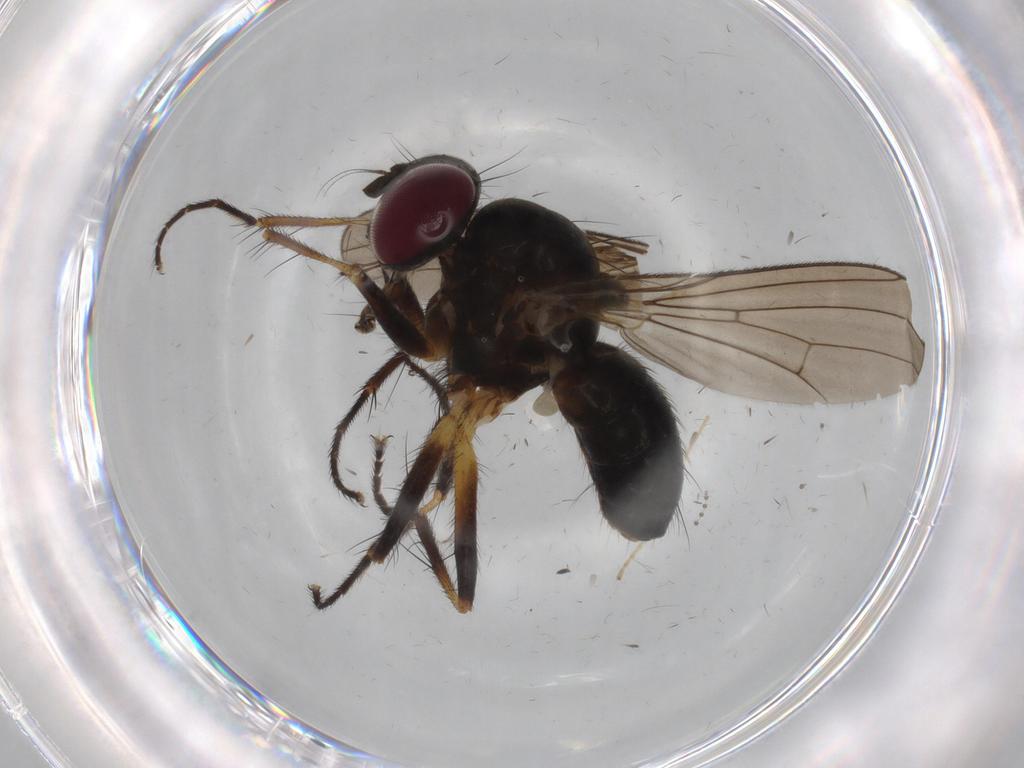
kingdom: Animalia
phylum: Arthropoda
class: Insecta
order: Diptera
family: Anthomyiidae
